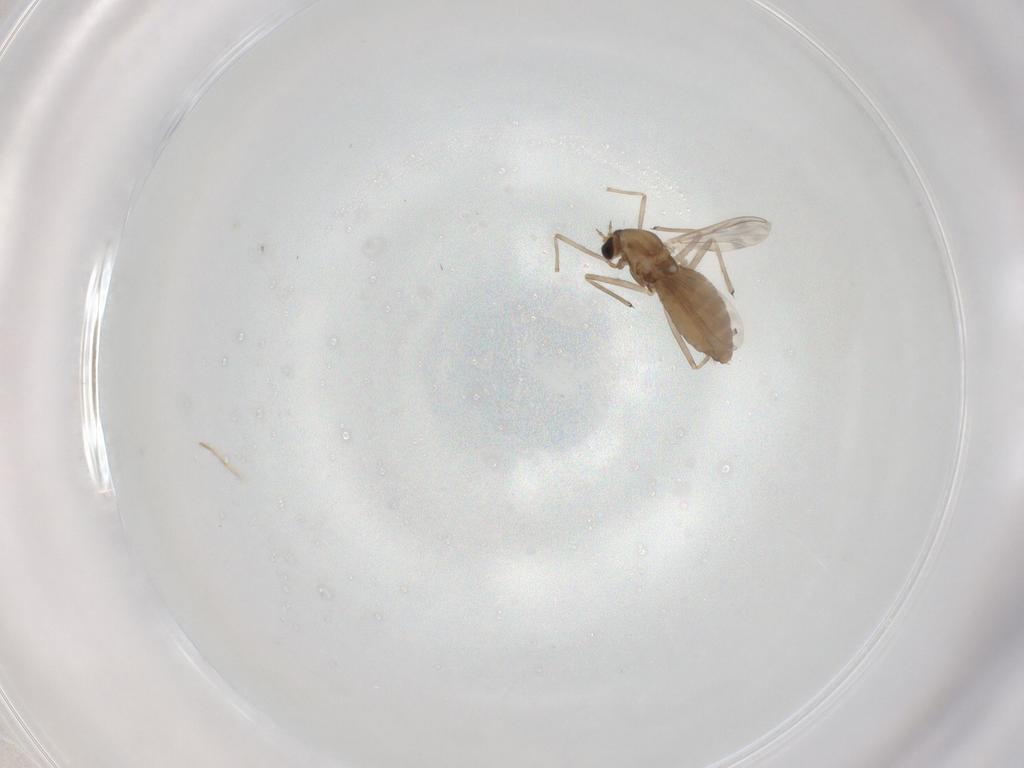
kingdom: Animalia
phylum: Arthropoda
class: Insecta
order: Diptera
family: Chironomidae
